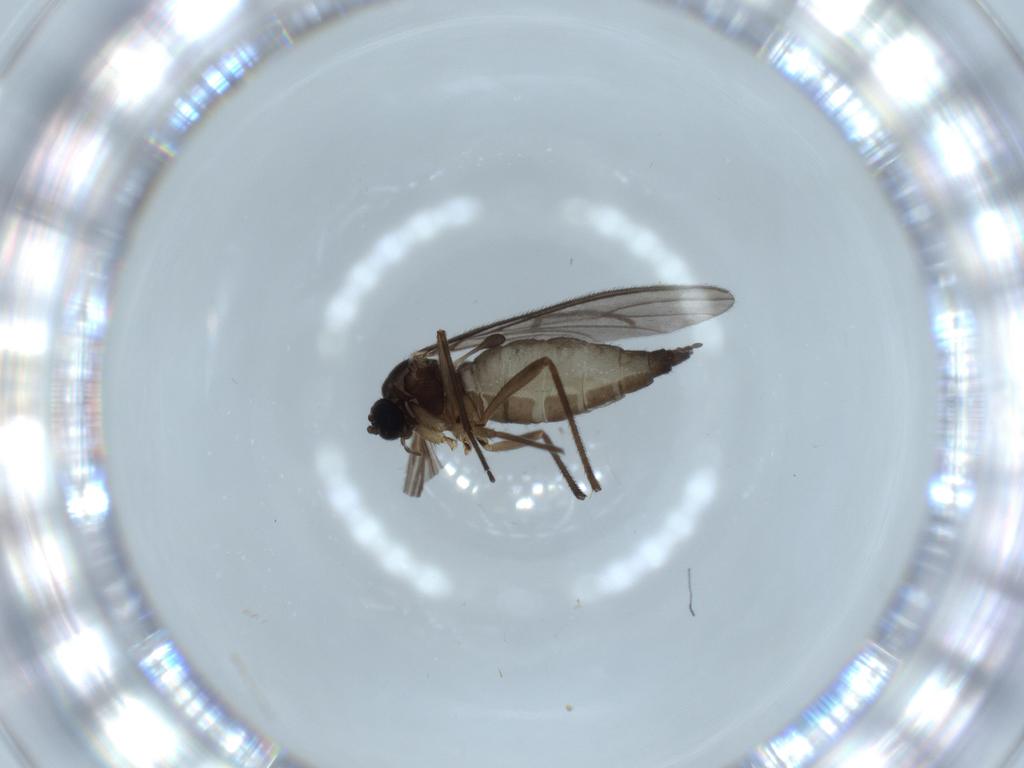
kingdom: Animalia
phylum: Arthropoda
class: Insecta
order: Diptera
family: Sciaridae
